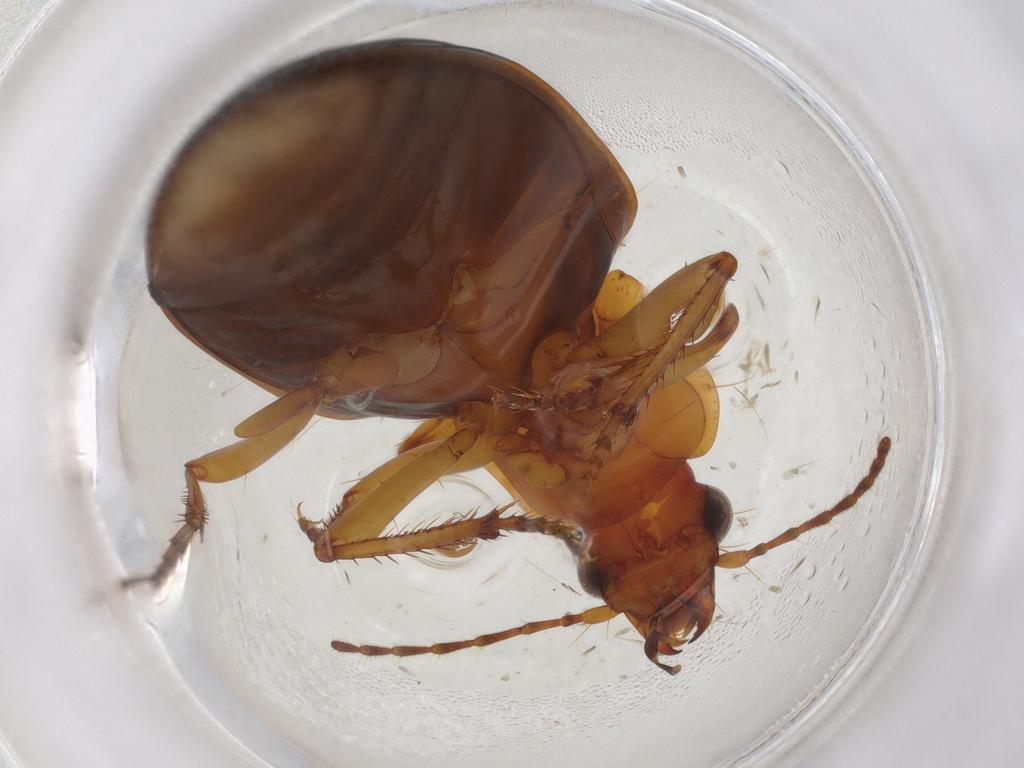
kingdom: Animalia
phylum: Arthropoda
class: Insecta
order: Coleoptera
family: Carabidae
